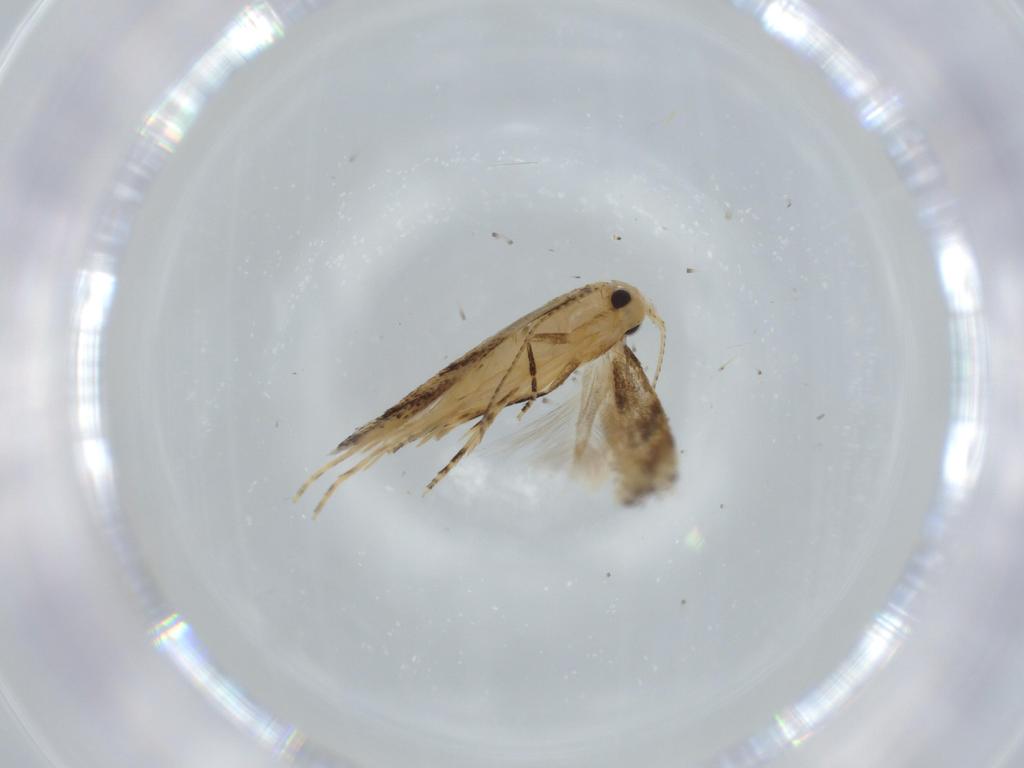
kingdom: Animalia
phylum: Arthropoda
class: Insecta
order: Lepidoptera
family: Bucculatricidae
